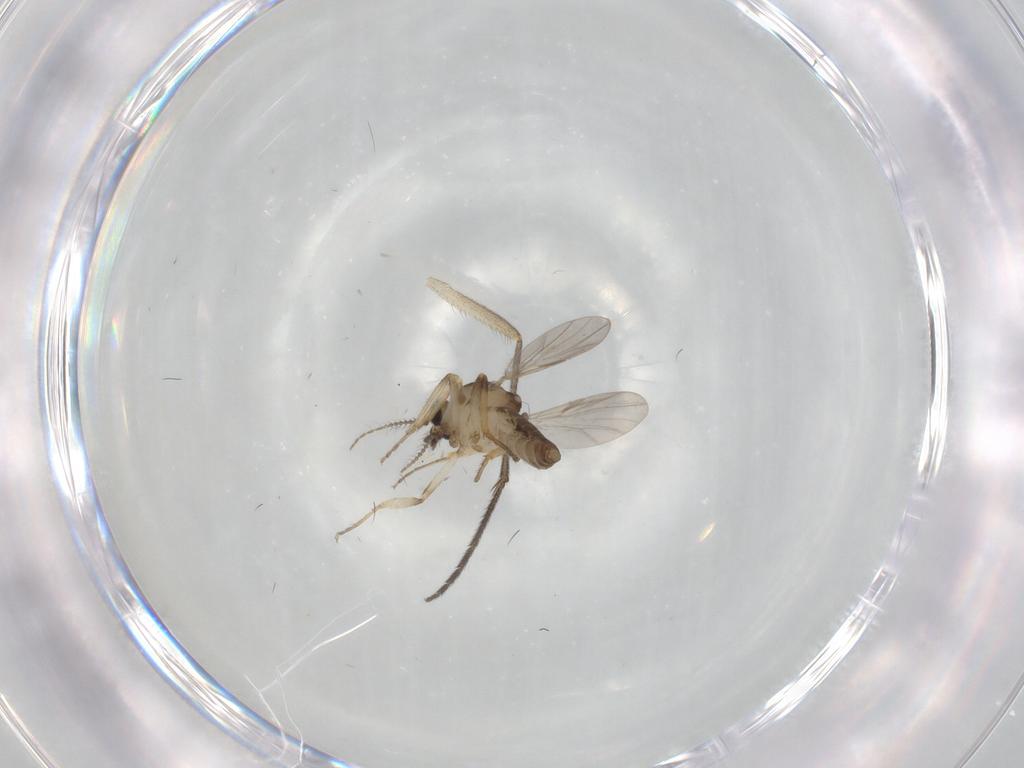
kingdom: Animalia
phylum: Arthropoda
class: Insecta
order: Diptera
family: Sciaridae
